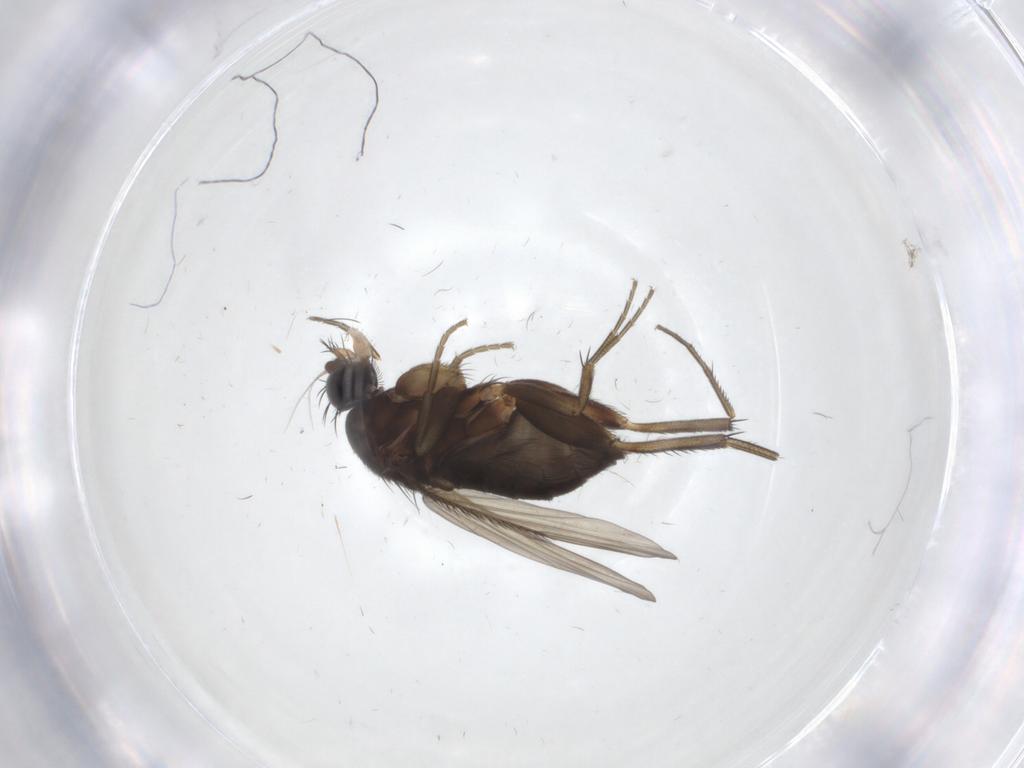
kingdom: Animalia
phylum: Arthropoda
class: Insecta
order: Diptera
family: Phoridae
